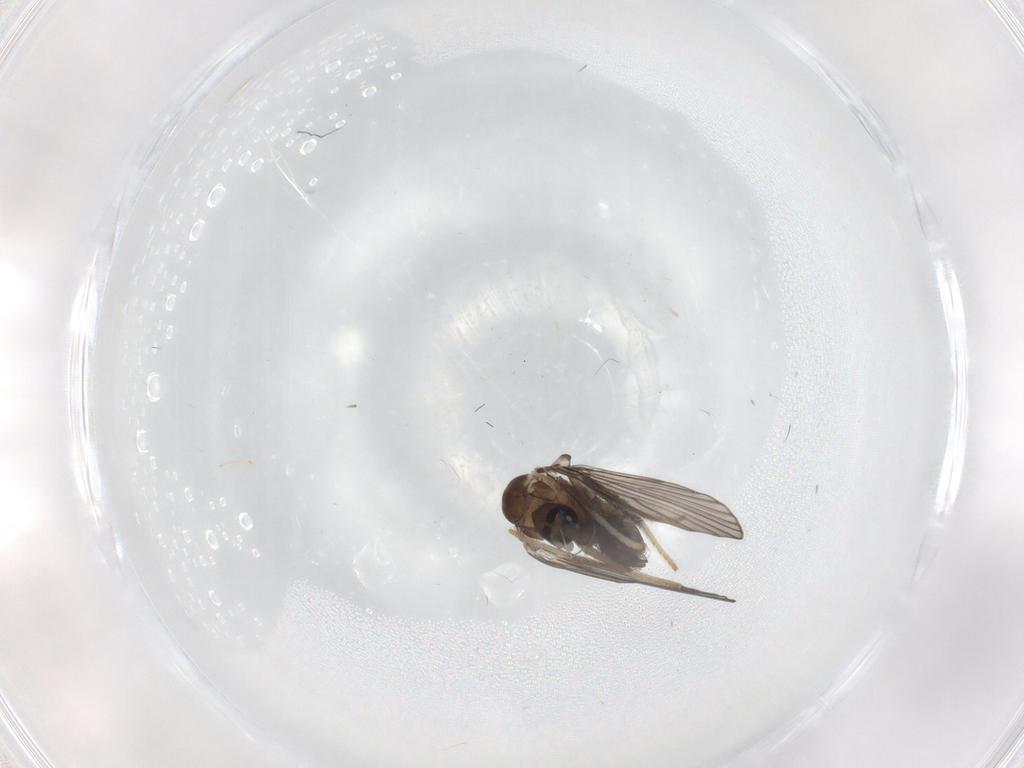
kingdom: Animalia
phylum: Arthropoda
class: Insecta
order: Diptera
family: Psychodidae
